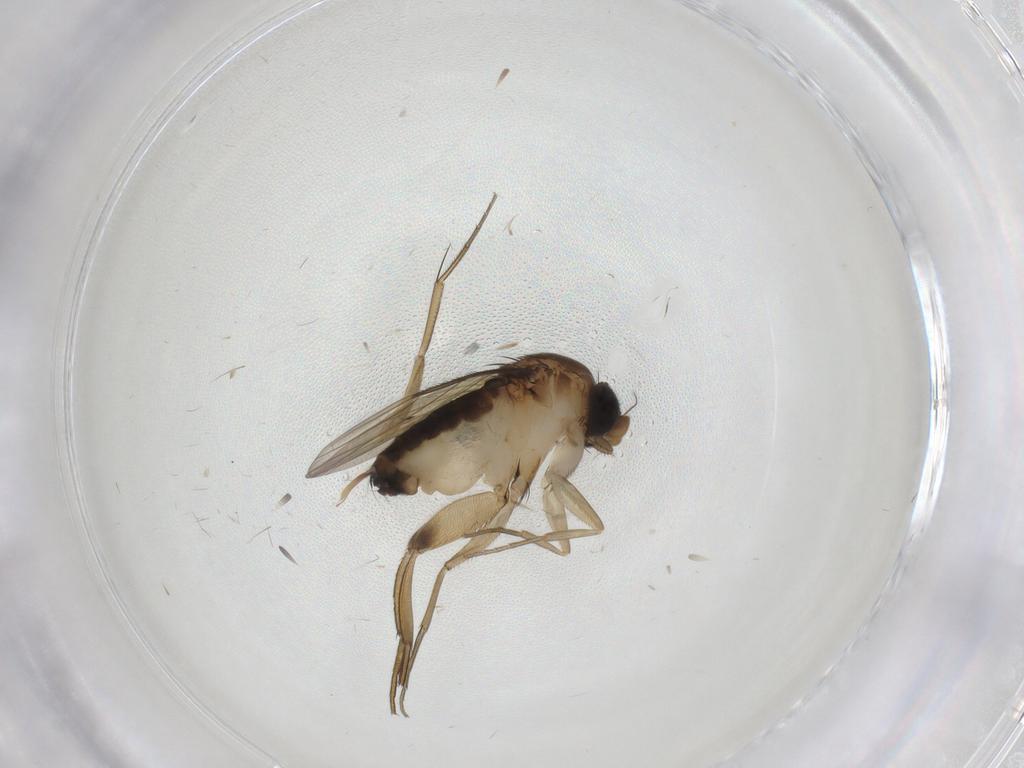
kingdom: Animalia
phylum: Arthropoda
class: Insecta
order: Diptera
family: Phoridae
